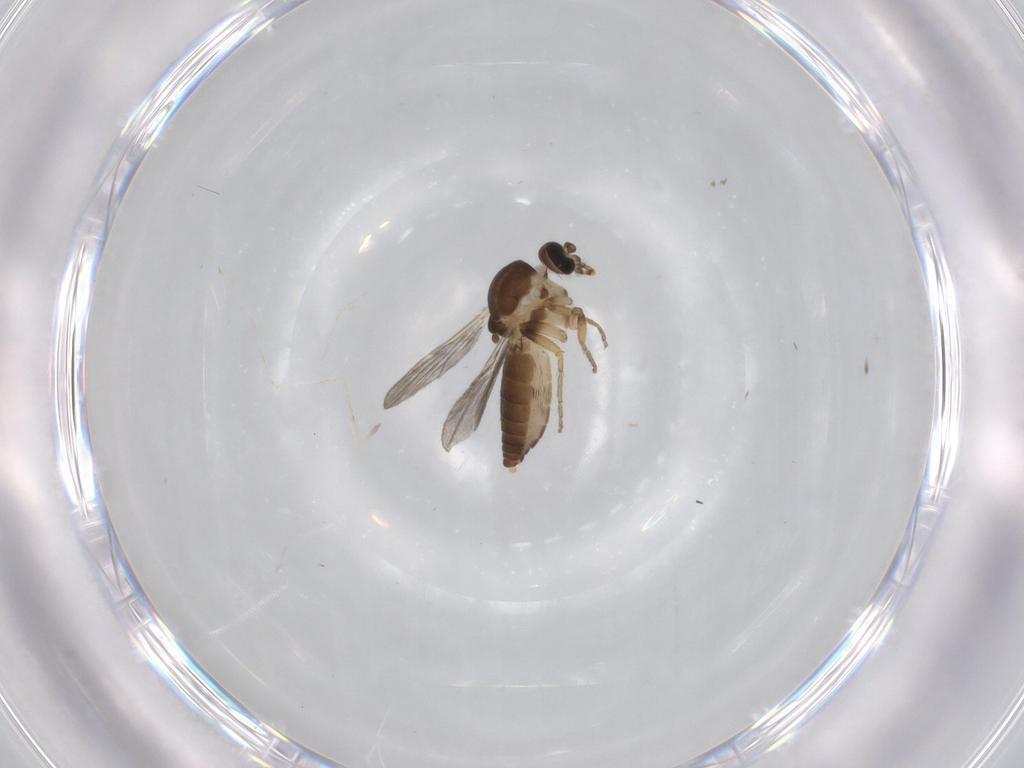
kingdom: Animalia
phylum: Arthropoda
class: Insecta
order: Diptera
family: Ceratopogonidae
